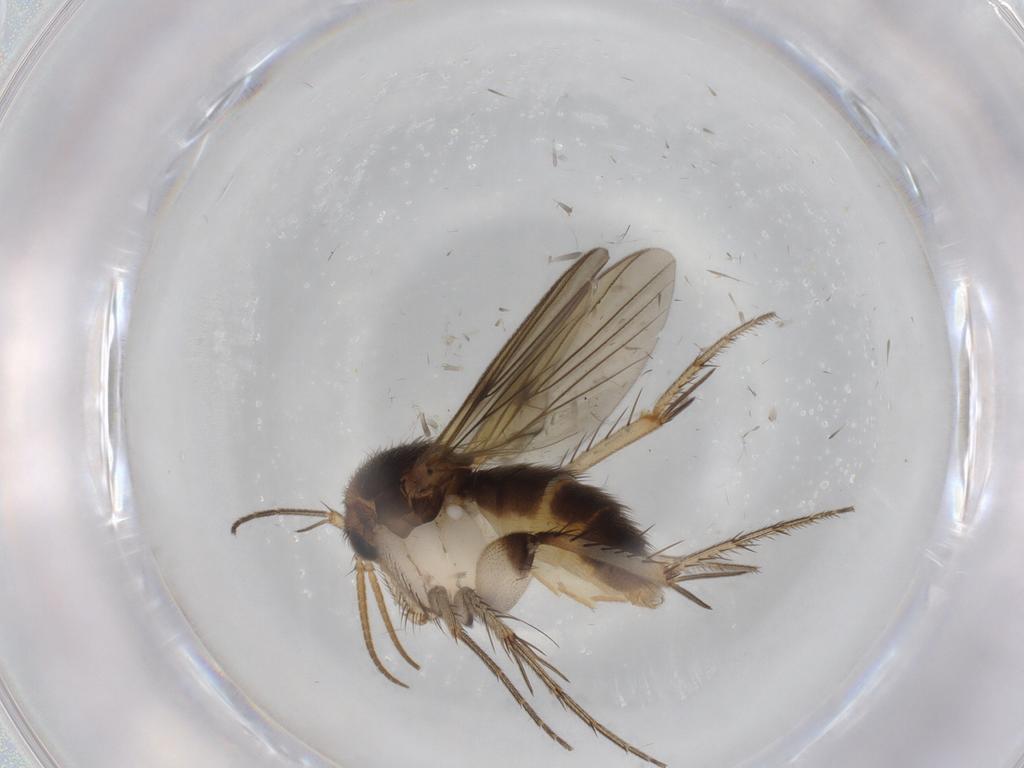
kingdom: Animalia
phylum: Arthropoda
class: Insecta
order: Diptera
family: Mycetophilidae
